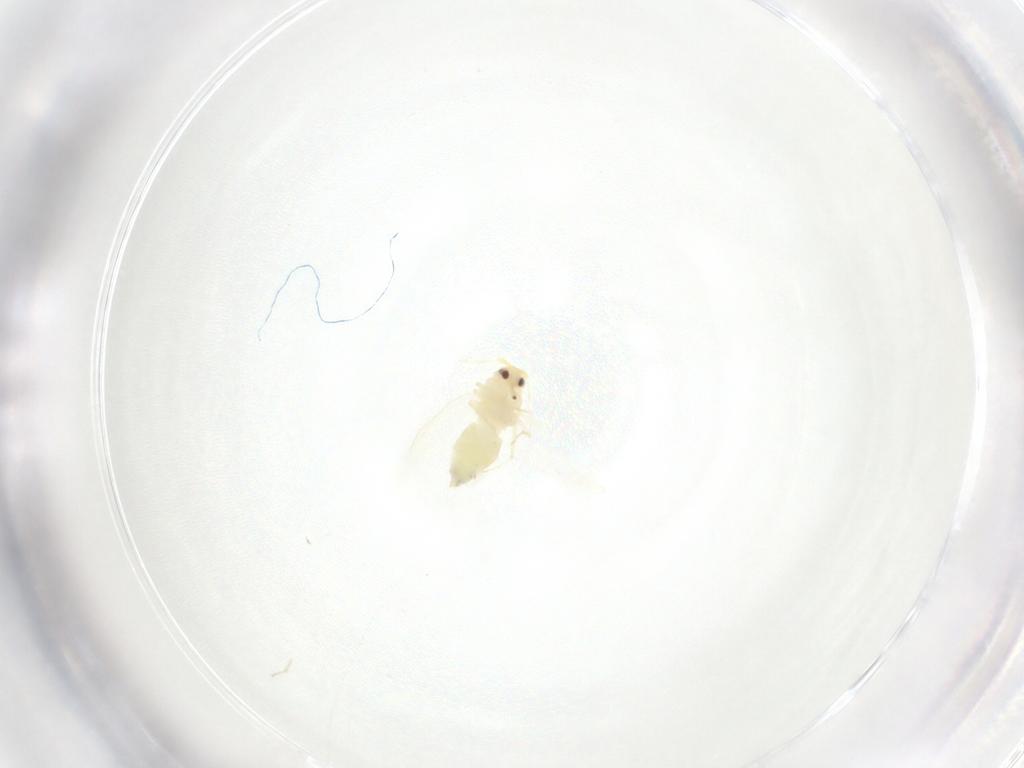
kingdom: Animalia
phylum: Arthropoda
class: Insecta
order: Hemiptera
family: Aleyrodidae
